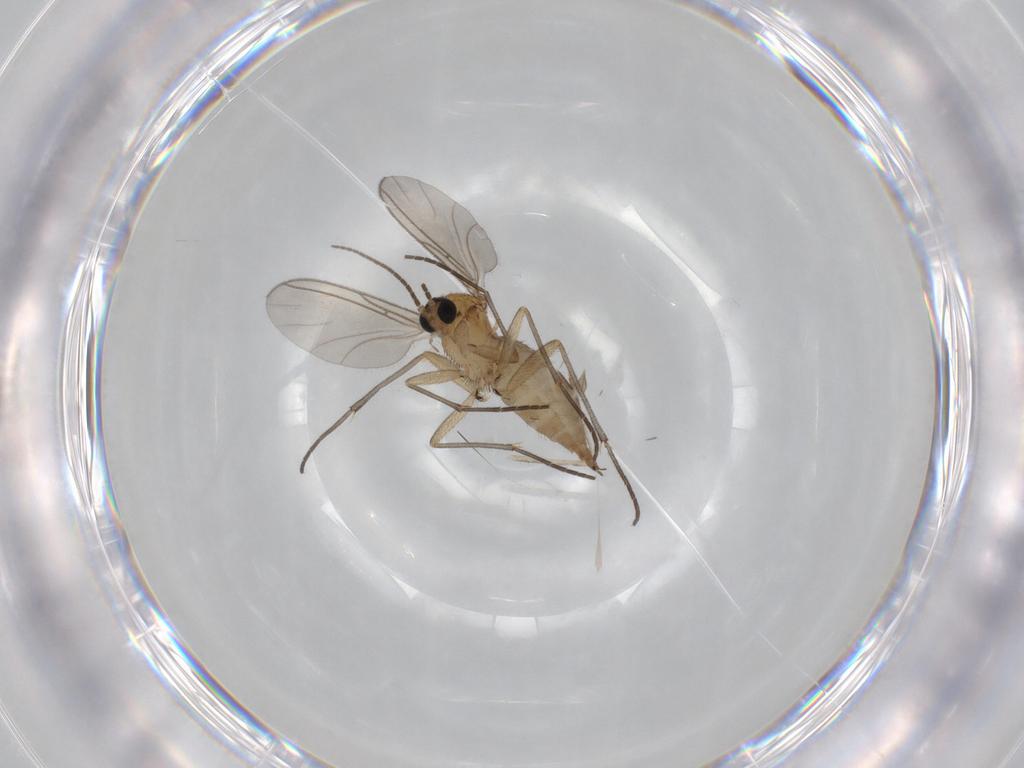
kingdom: Animalia
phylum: Arthropoda
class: Insecta
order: Diptera
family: Sciaridae
